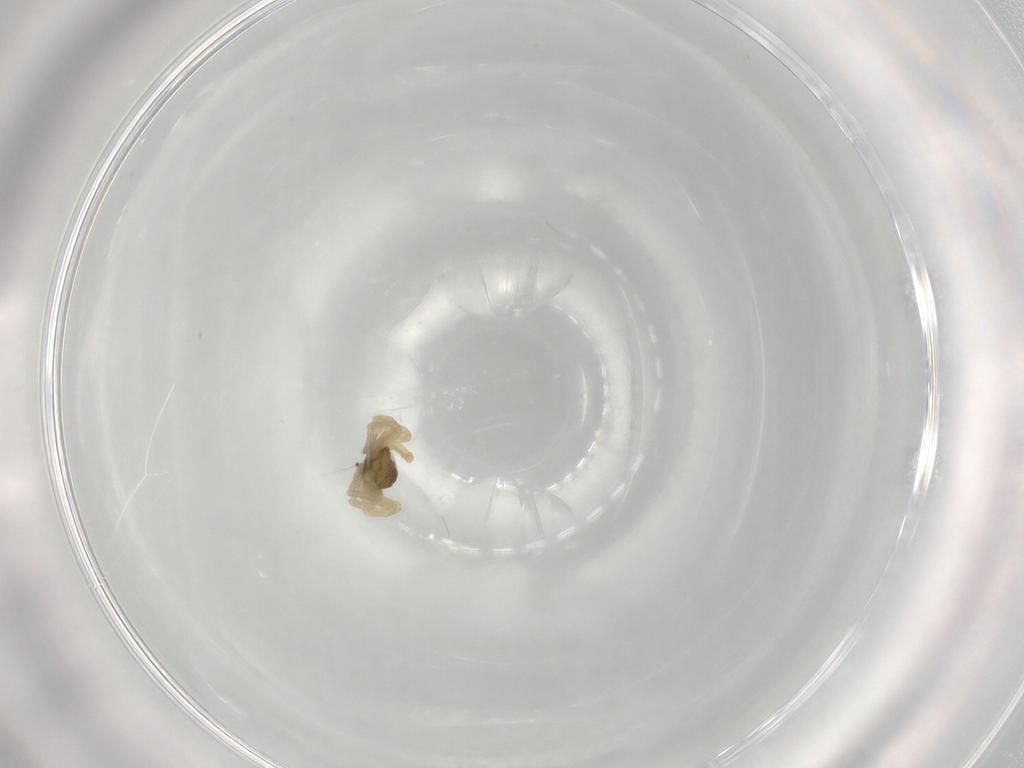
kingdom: Animalia
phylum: Arthropoda
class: Arachnida
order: Araneae
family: Linyphiidae
